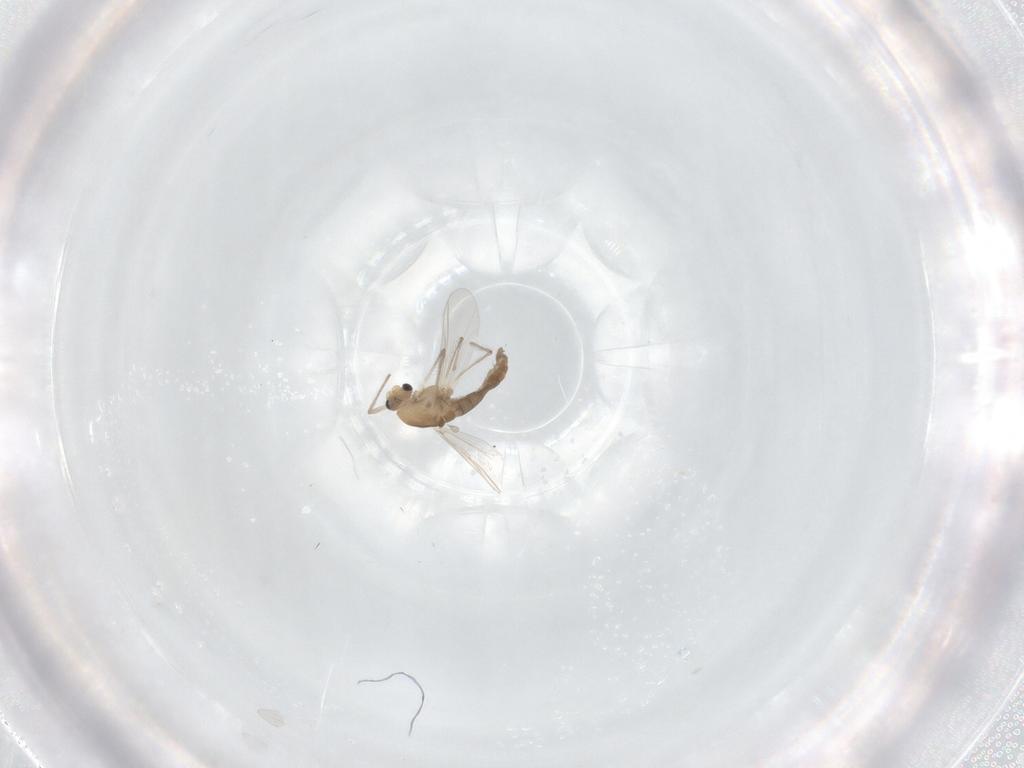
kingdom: Animalia
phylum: Arthropoda
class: Insecta
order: Diptera
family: Chironomidae
